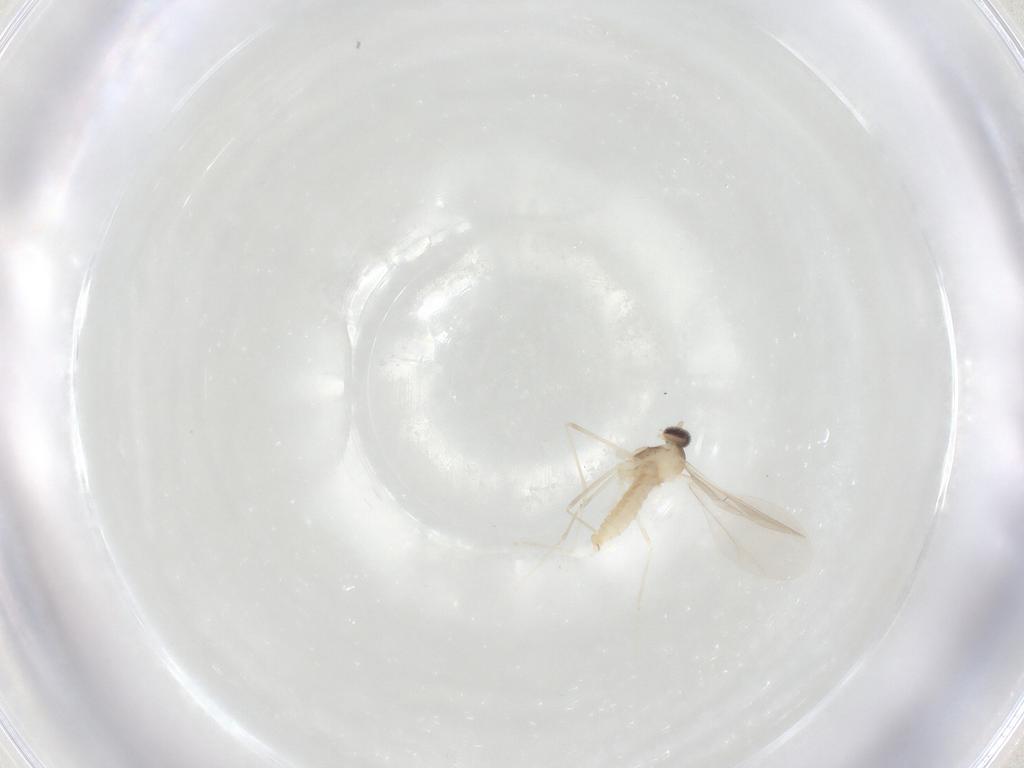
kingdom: Animalia
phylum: Arthropoda
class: Insecta
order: Diptera
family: Cecidomyiidae
